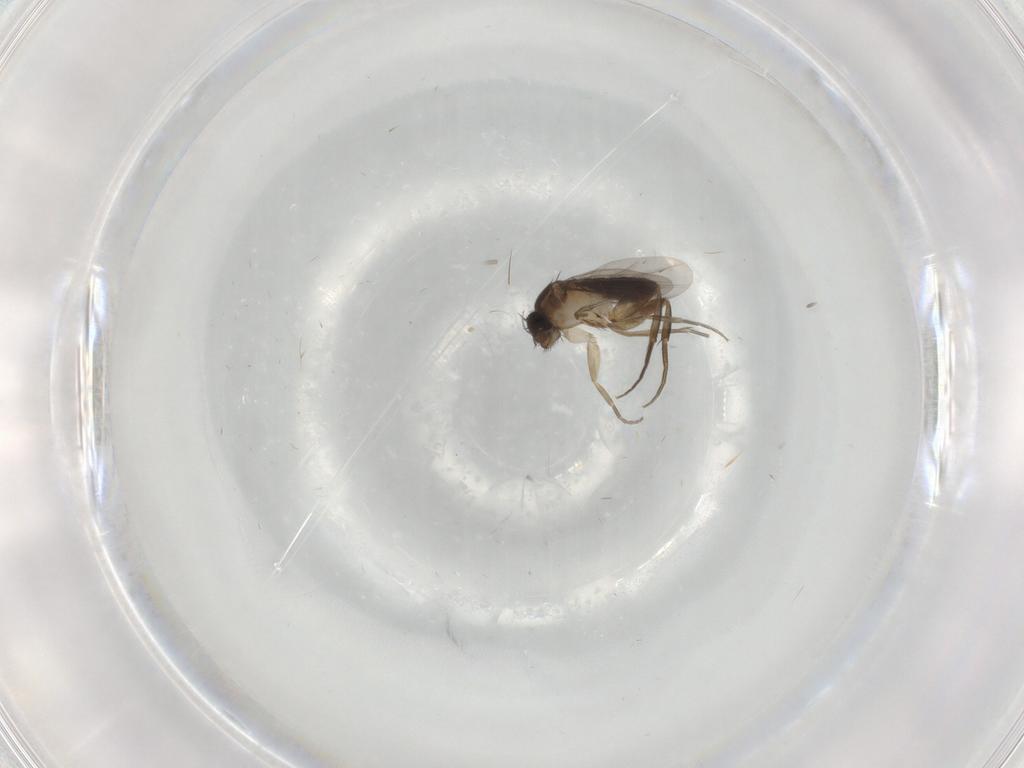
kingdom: Animalia
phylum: Arthropoda
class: Insecta
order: Diptera
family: Phoridae
